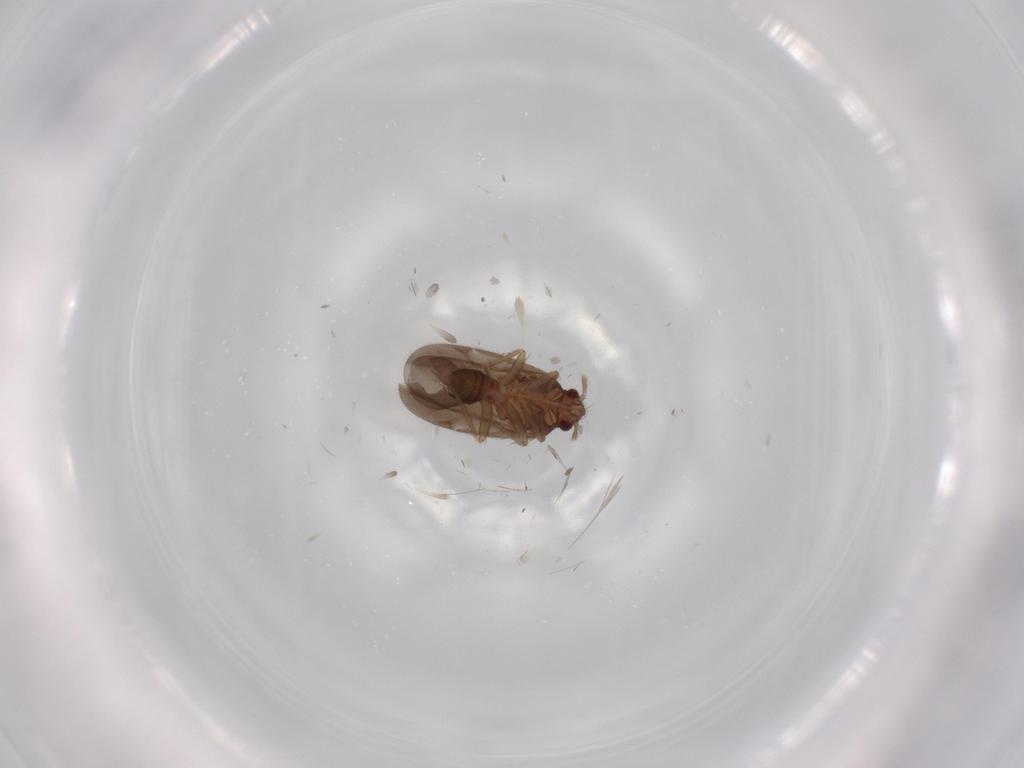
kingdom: Animalia
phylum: Arthropoda
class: Insecta
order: Hemiptera
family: Ceratocombidae
